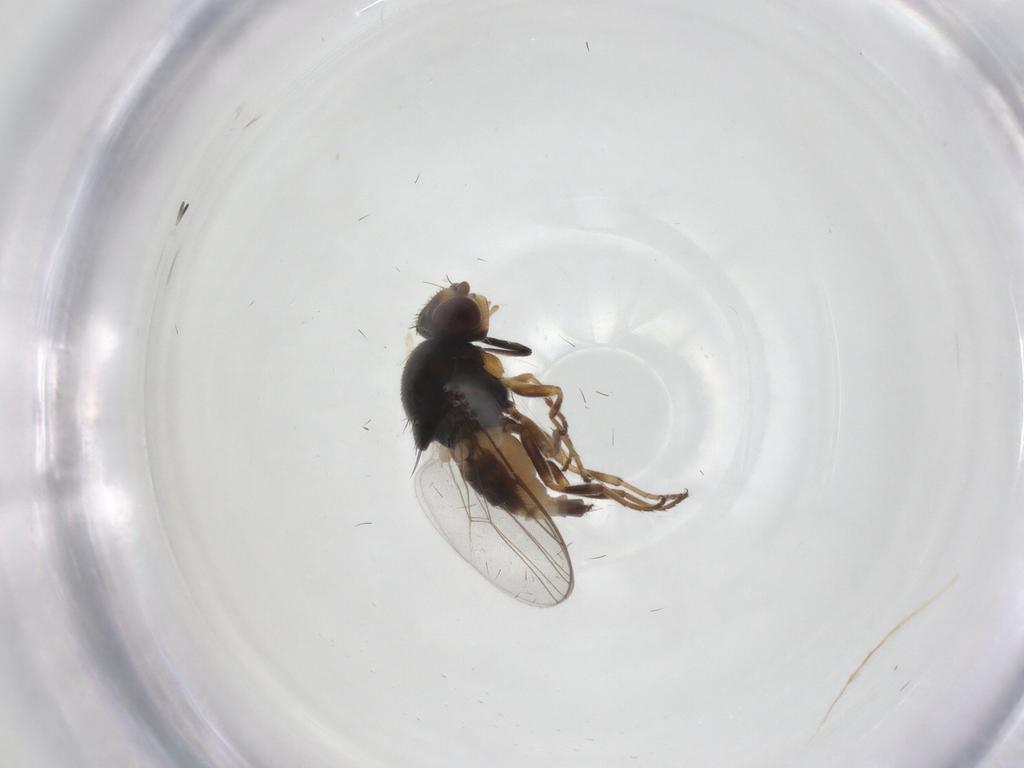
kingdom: Animalia
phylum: Arthropoda
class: Insecta
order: Diptera
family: Chloropidae
